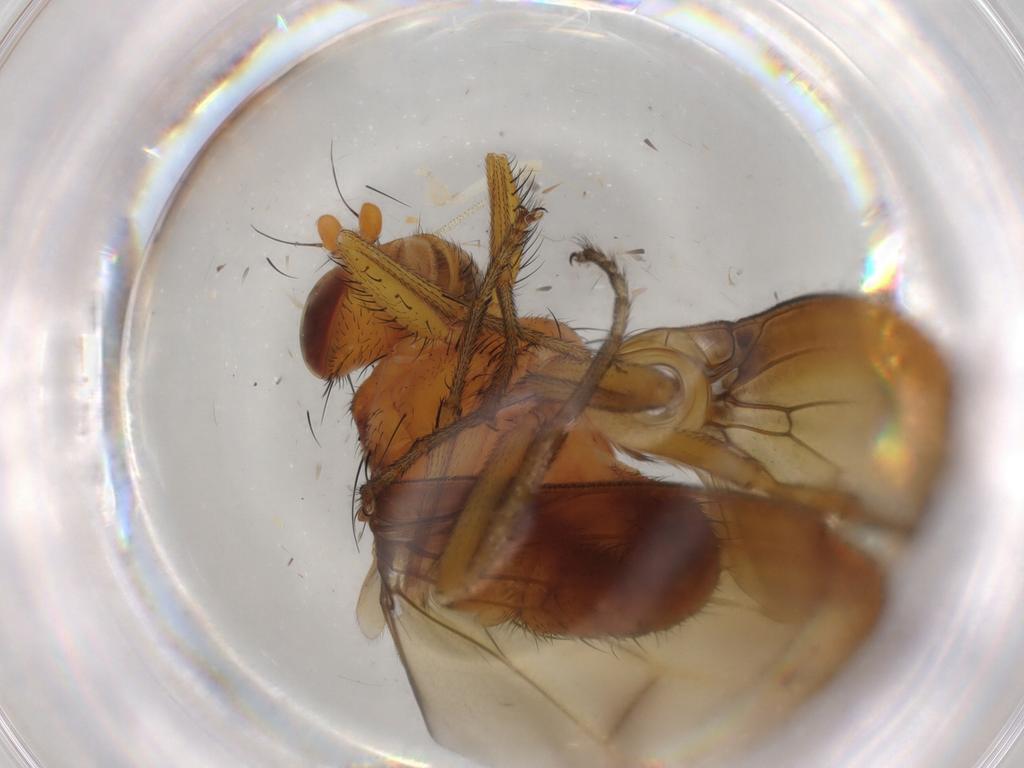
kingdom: Animalia
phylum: Arthropoda
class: Insecta
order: Diptera
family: Lauxaniidae
